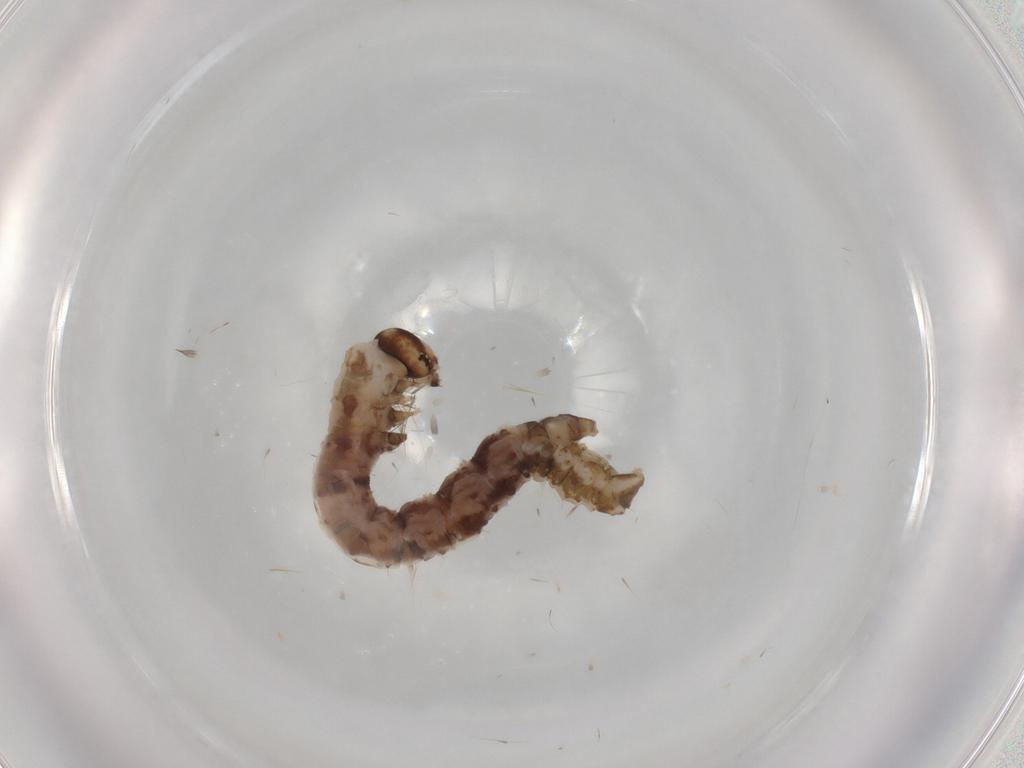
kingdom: Animalia
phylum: Arthropoda
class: Insecta
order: Lepidoptera
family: Geometridae
